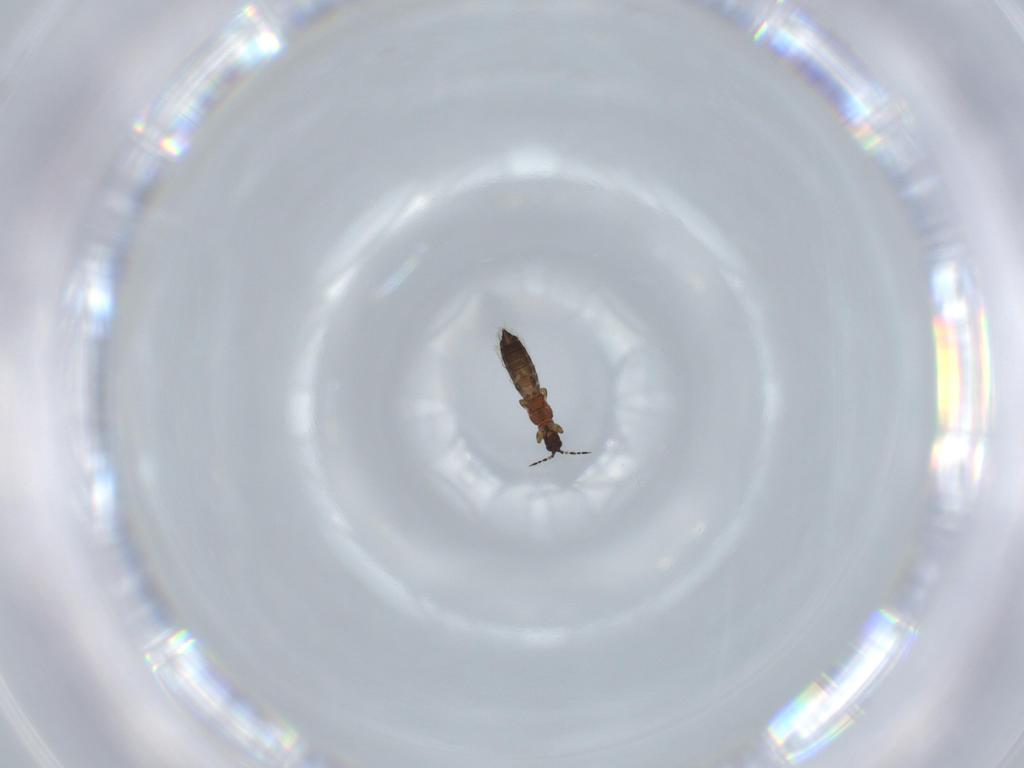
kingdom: Animalia
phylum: Arthropoda
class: Insecta
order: Thysanoptera
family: Thripidae
